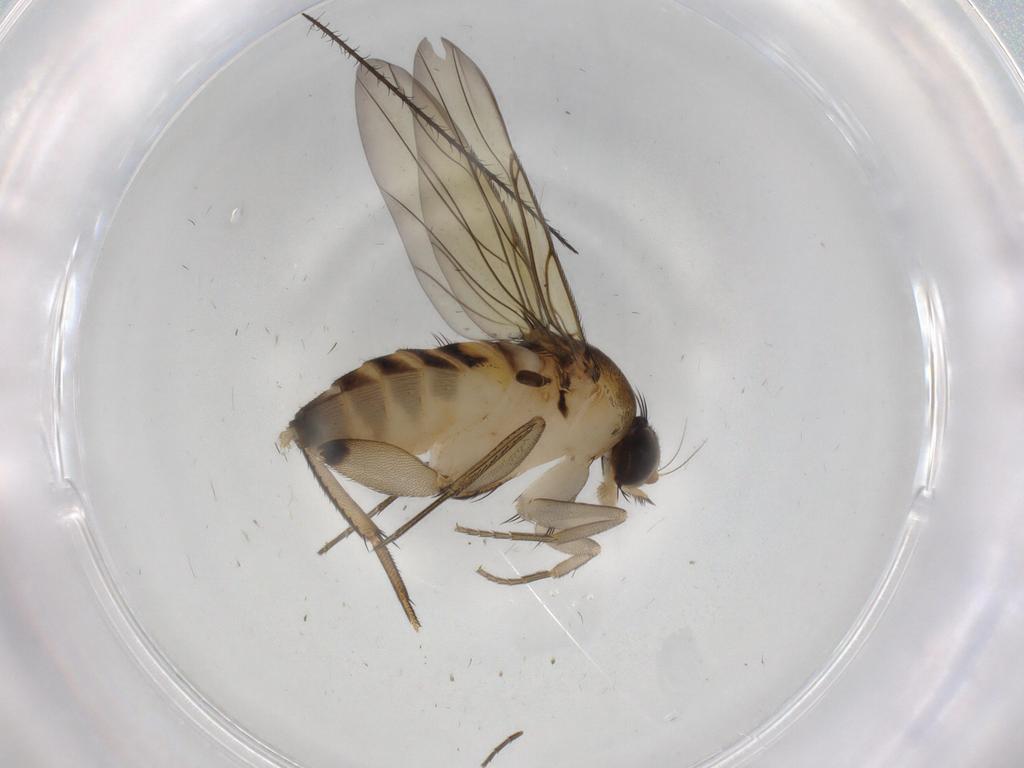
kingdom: Animalia
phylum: Arthropoda
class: Insecta
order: Diptera
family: Phoridae
